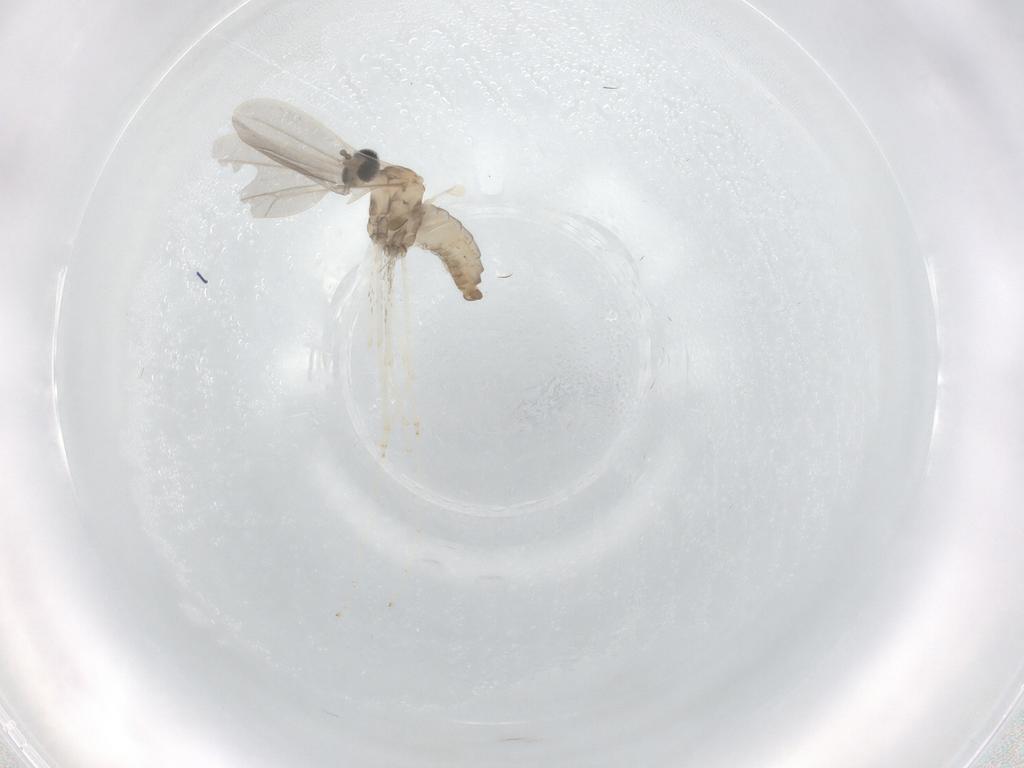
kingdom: Animalia
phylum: Arthropoda
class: Insecta
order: Diptera
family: Cecidomyiidae
